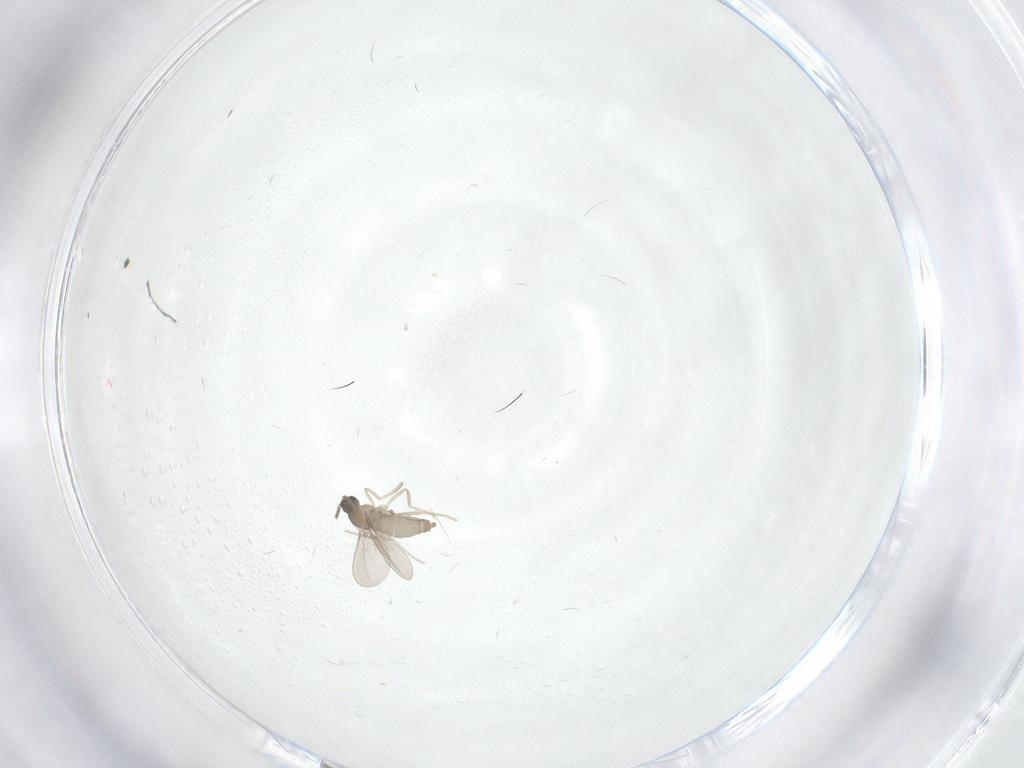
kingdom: Animalia
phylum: Arthropoda
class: Insecta
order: Diptera
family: Cecidomyiidae
